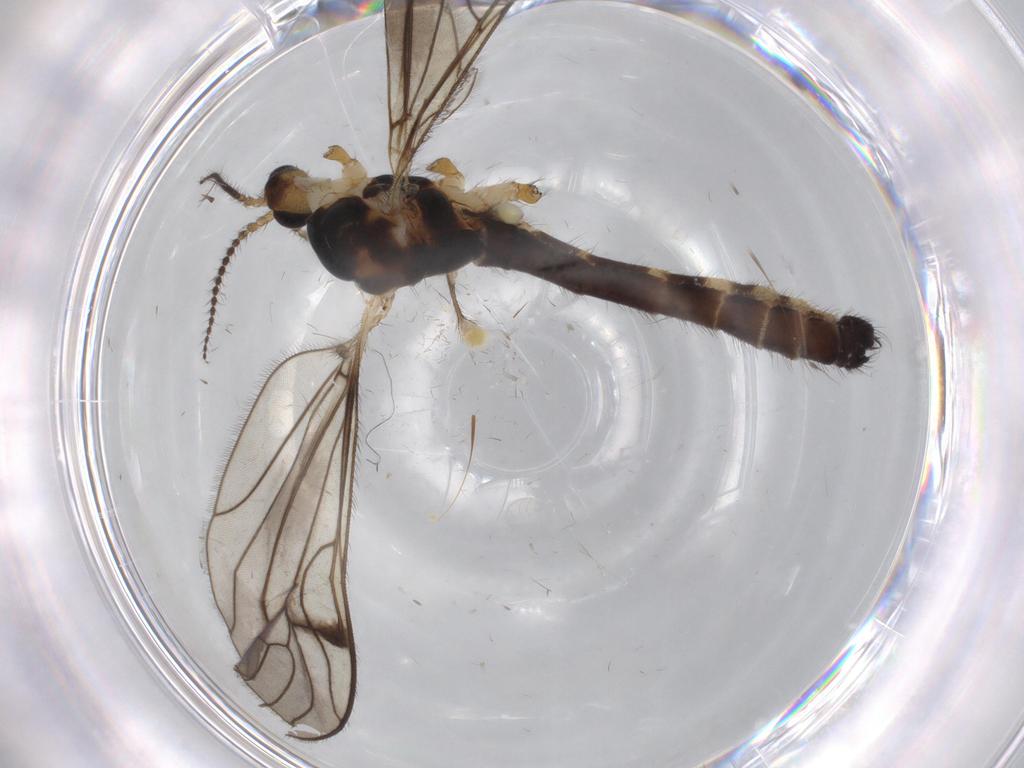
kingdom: Animalia
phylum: Arthropoda
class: Insecta
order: Diptera
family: Limoniidae
